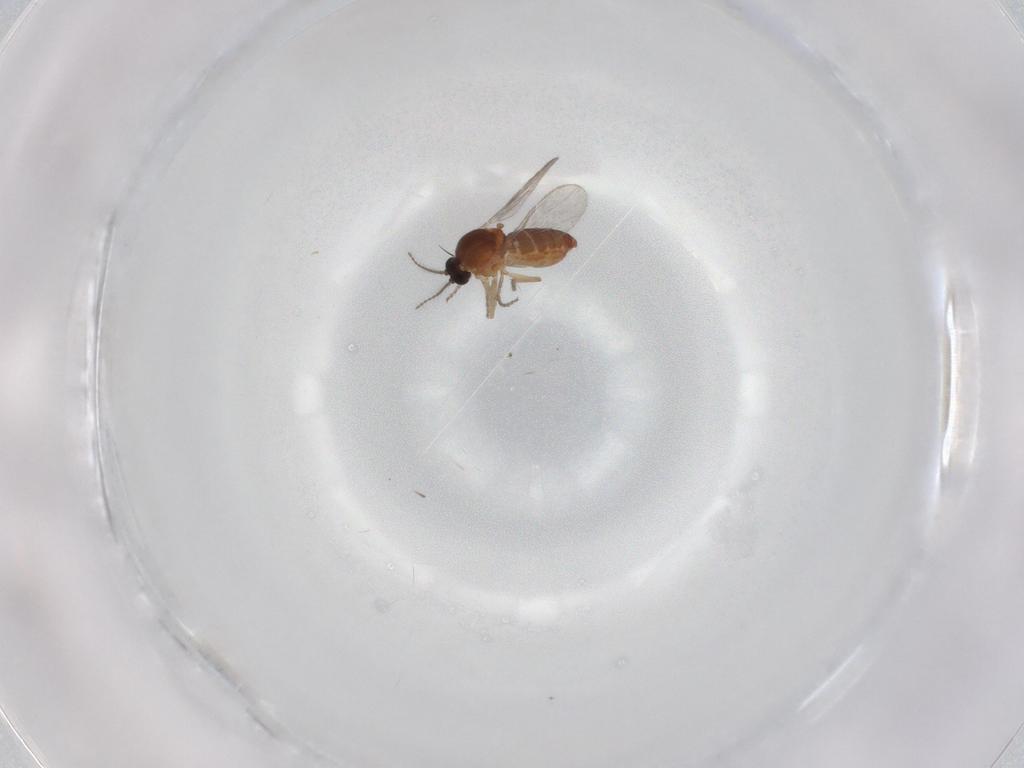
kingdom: Animalia
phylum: Arthropoda
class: Insecta
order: Diptera
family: Ceratopogonidae
